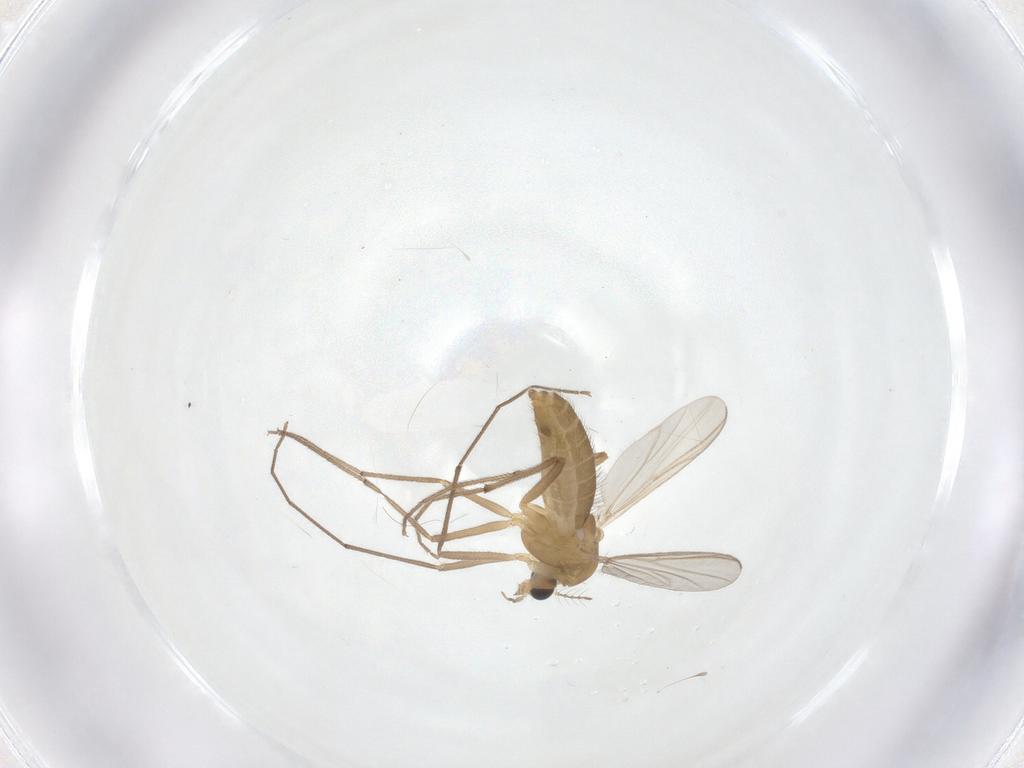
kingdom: Animalia
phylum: Arthropoda
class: Insecta
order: Diptera
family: Chironomidae
